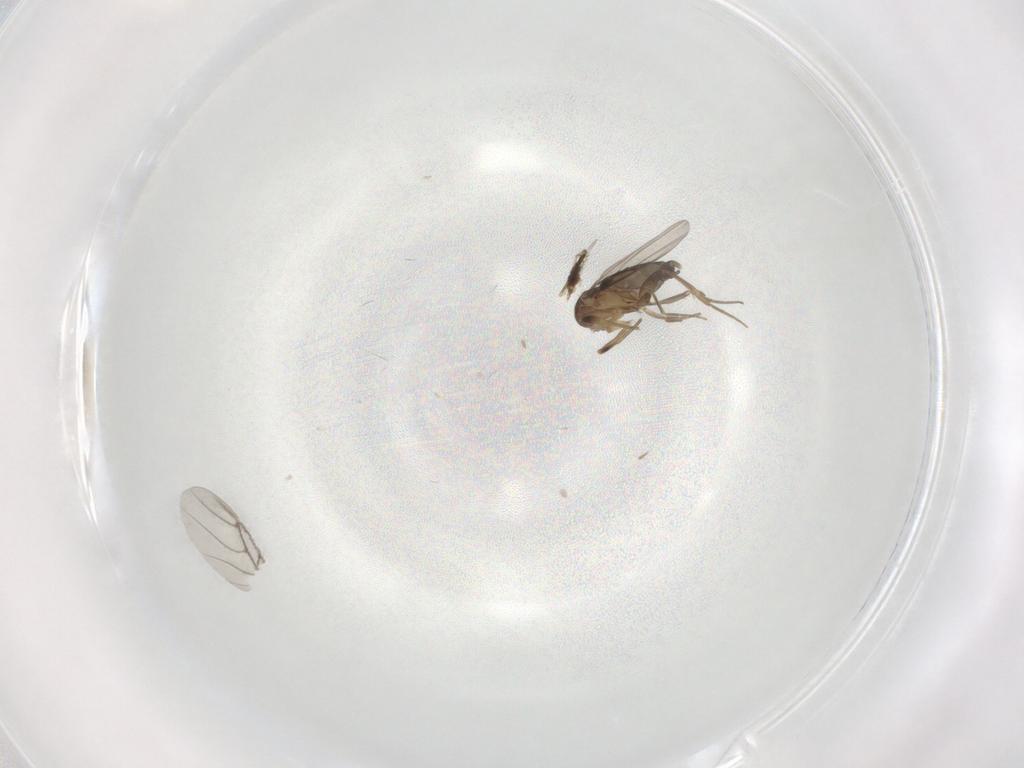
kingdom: Animalia
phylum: Arthropoda
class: Insecta
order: Diptera
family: Phoridae
